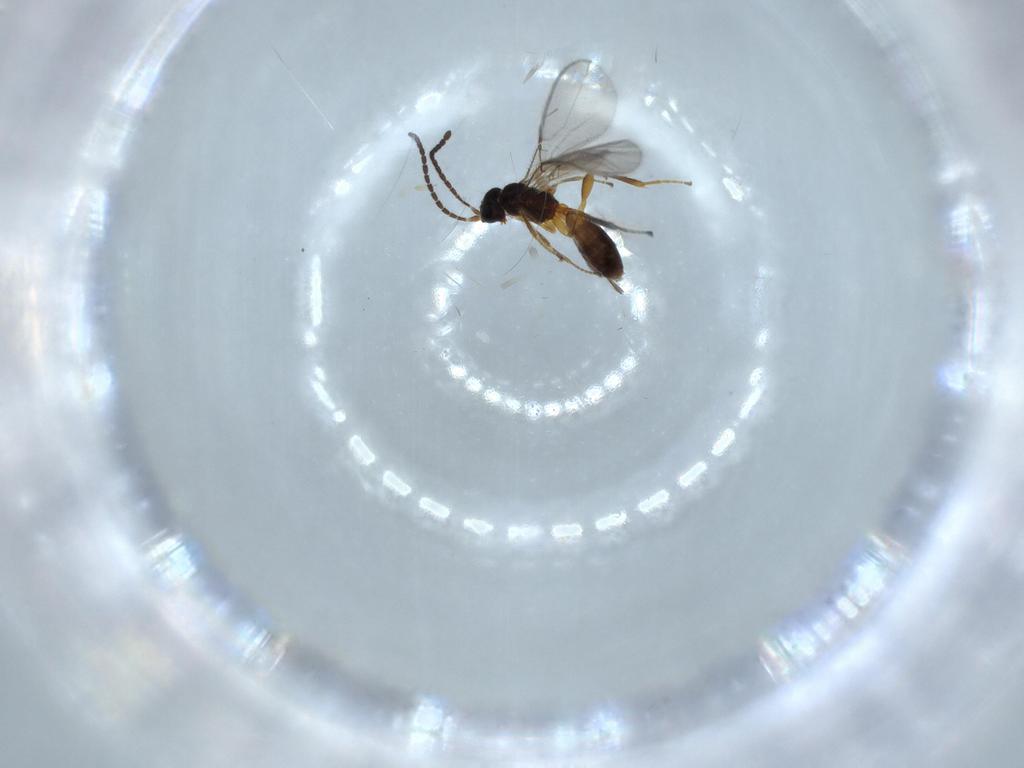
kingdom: Animalia
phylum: Arthropoda
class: Insecta
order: Hymenoptera
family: Braconidae
